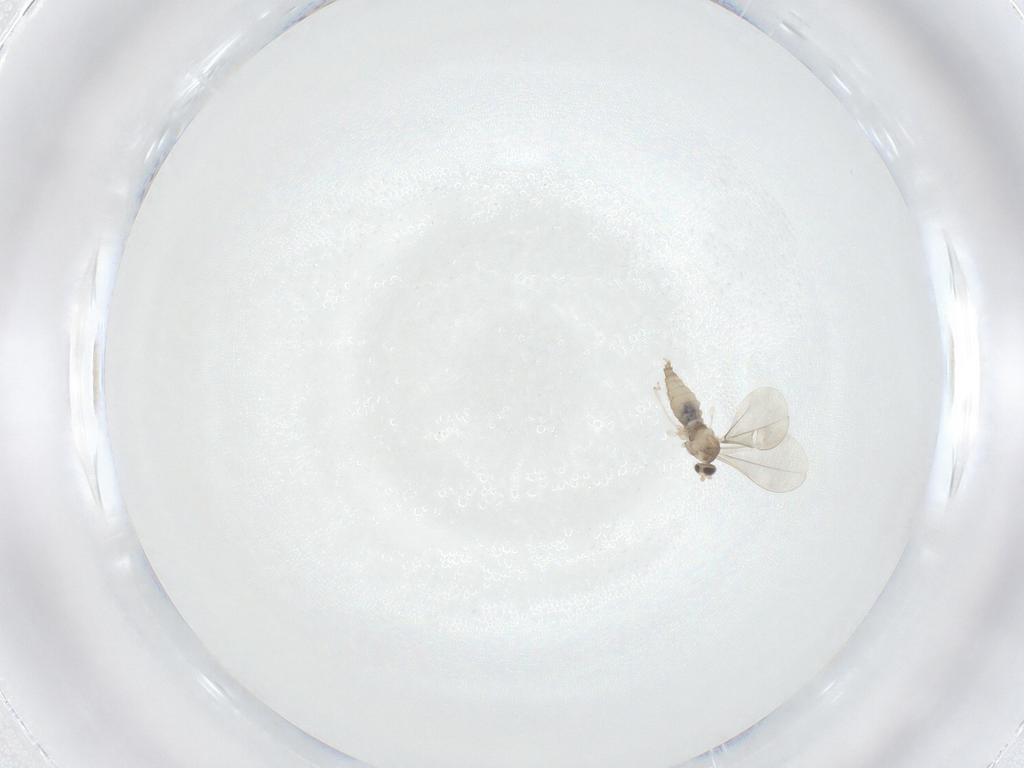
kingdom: Animalia
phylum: Arthropoda
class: Insecta
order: Diptera
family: Cecidomyiidae
